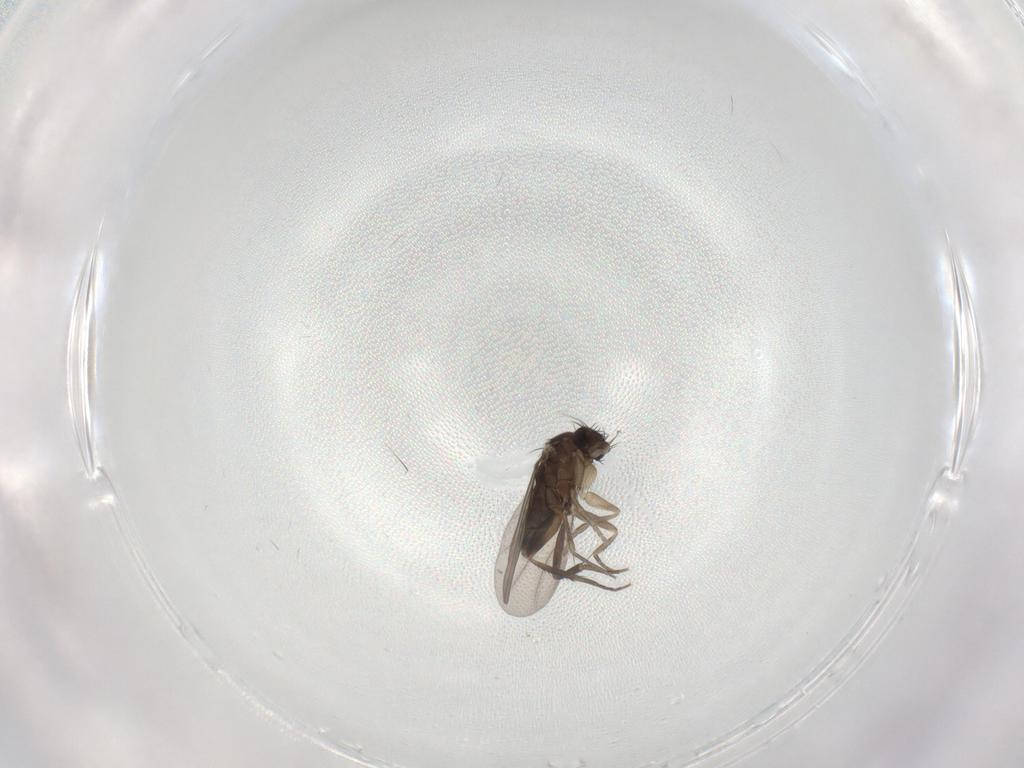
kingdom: Animalia
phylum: Arthropoda
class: Insecta
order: Diptera
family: Phoridae
